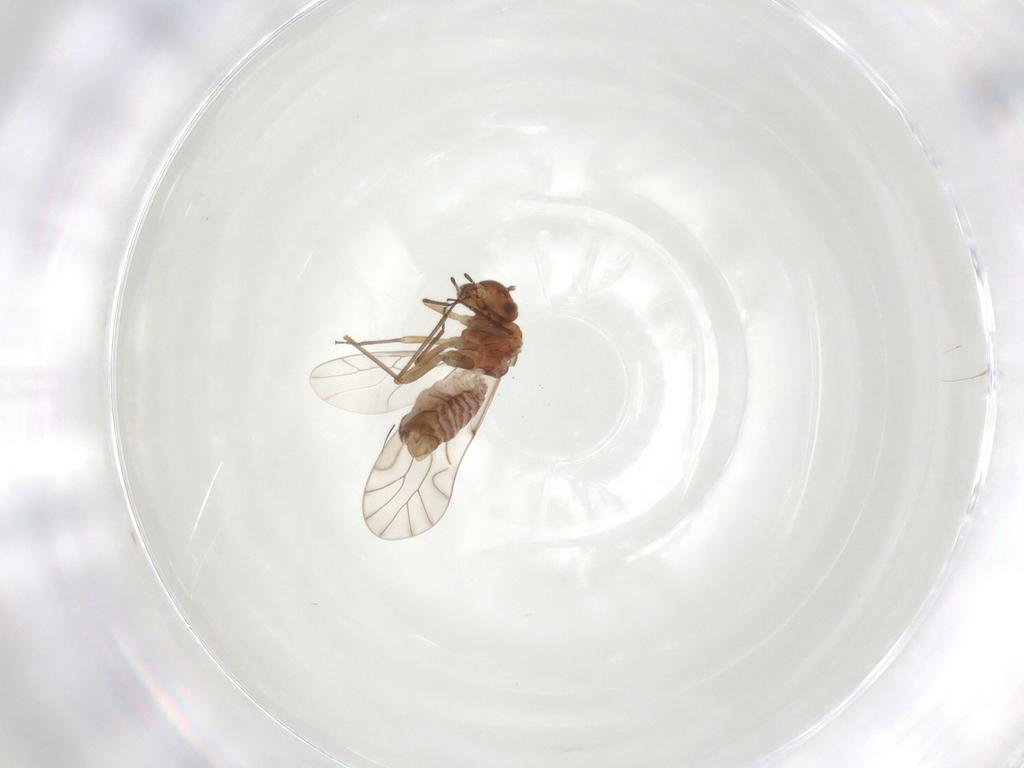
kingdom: Animalia
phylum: Arthropoda
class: Insecta
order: Psocodea
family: Lachesillidae
